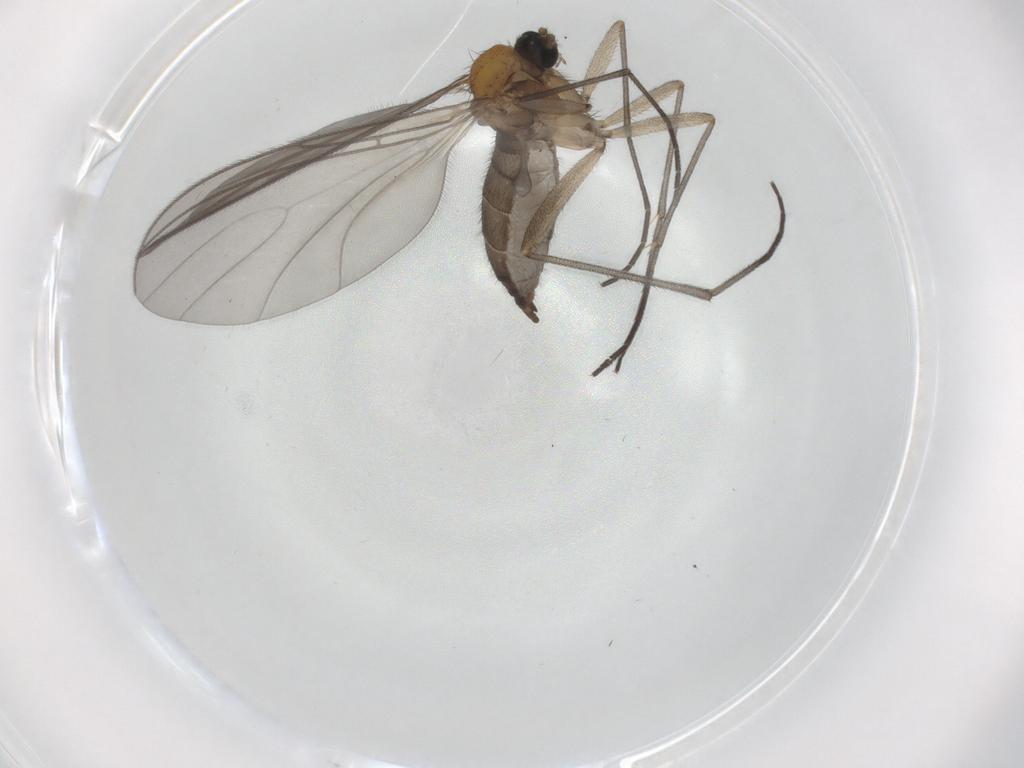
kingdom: Animalia
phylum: Arthropoda
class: Insecta
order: Diptera
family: Sciaridae
